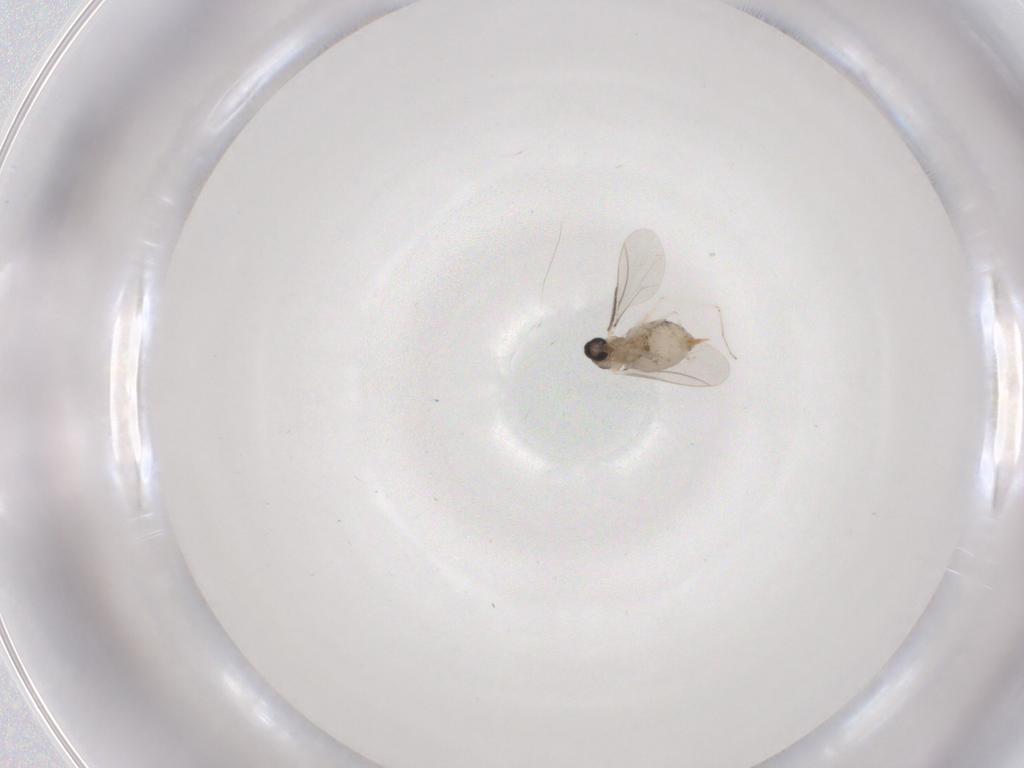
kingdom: Animalia
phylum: Arthropoda
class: Insecta
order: Diptera
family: Cecidomyiidae
